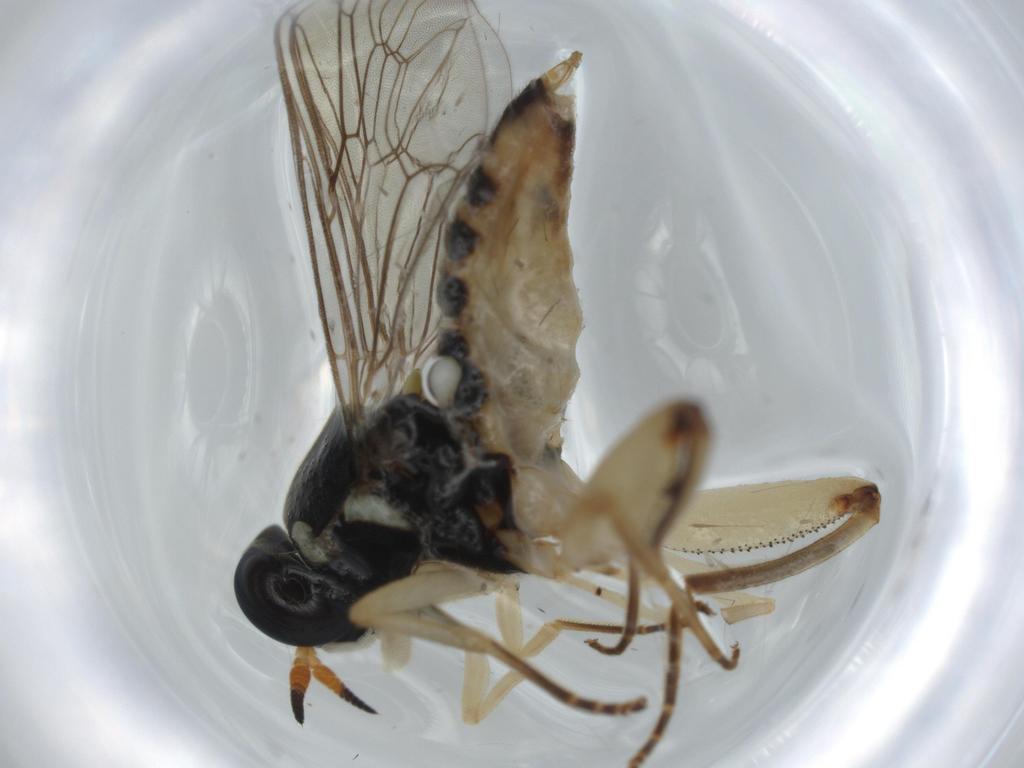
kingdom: Animalia
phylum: Arthropoda
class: Insecta
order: Diptera
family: Cecidomyiidae
